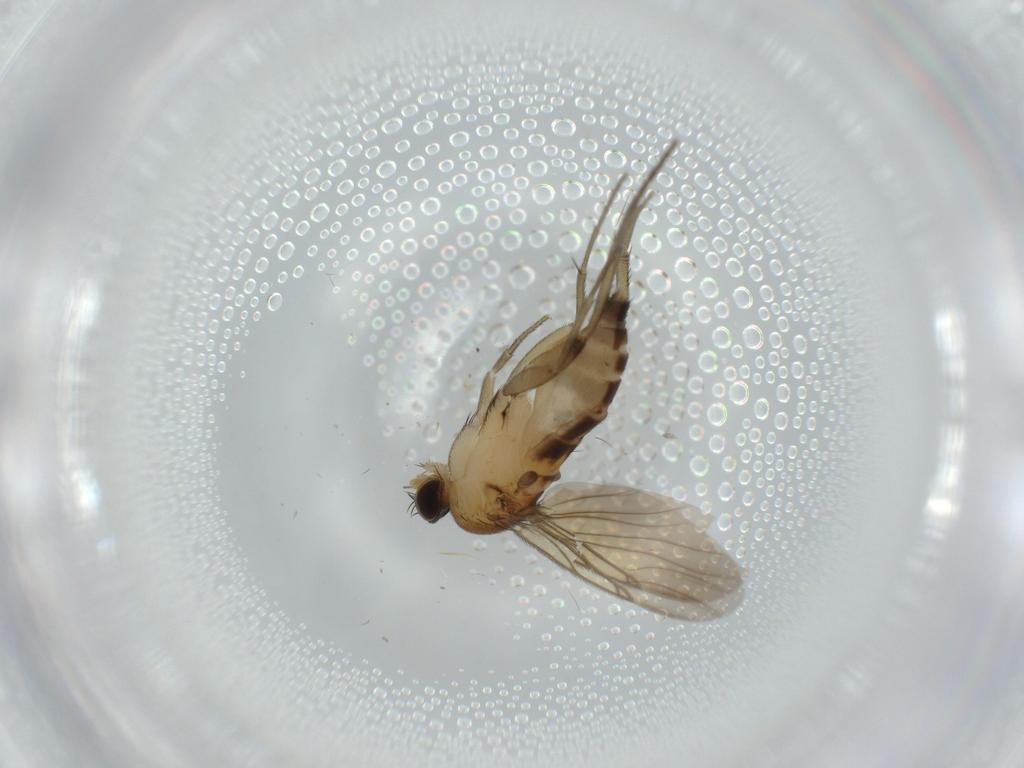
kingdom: Animalia
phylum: Arthropoda
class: Insecta
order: Diptera
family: Phoridae
